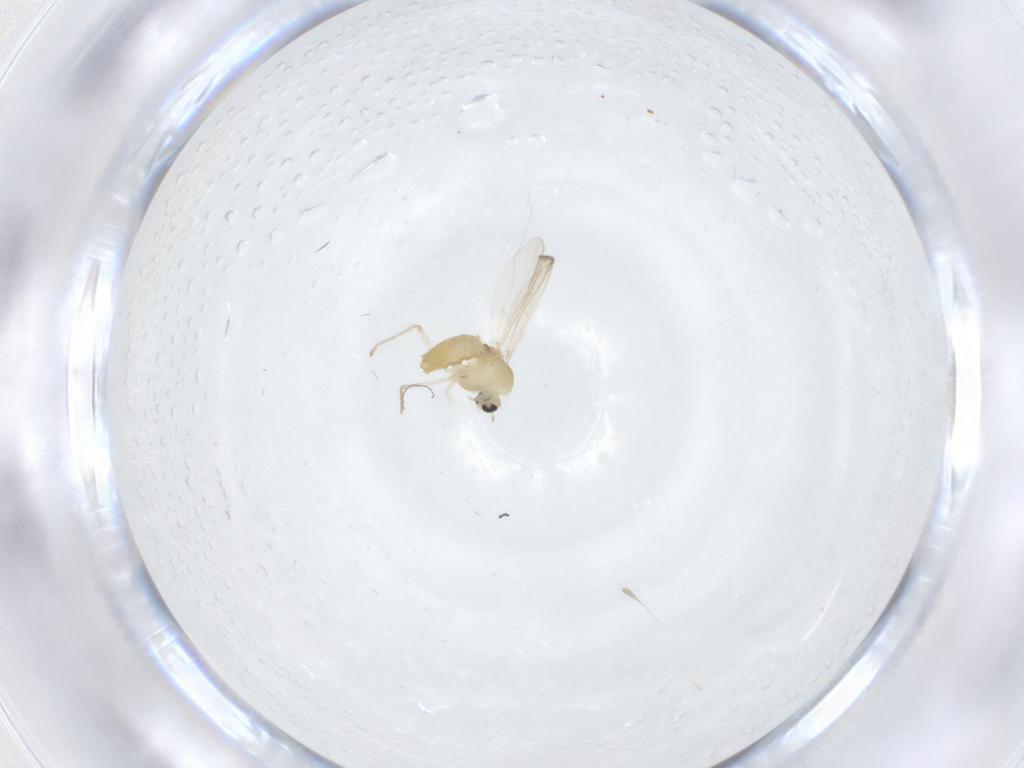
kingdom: Animalia
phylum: Arthropoda
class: Insecta
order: Diptera
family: Chironomidae
